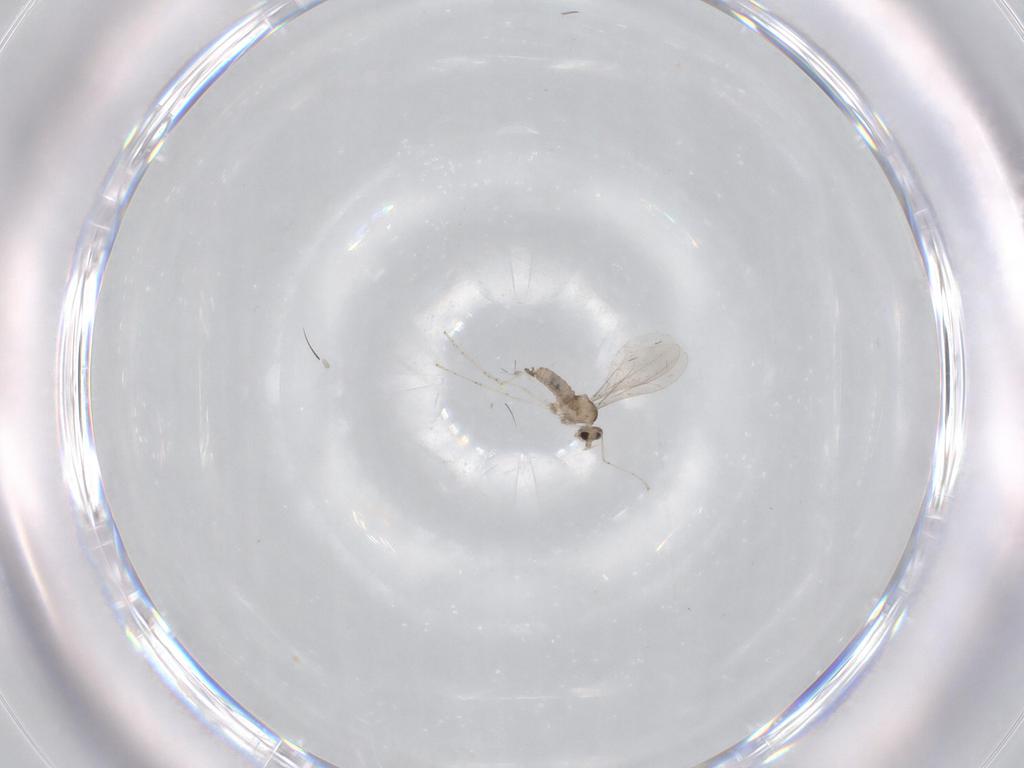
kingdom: Animalia
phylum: Arthropoda
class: Insecta
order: Diptera
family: Cecidomyiidae
